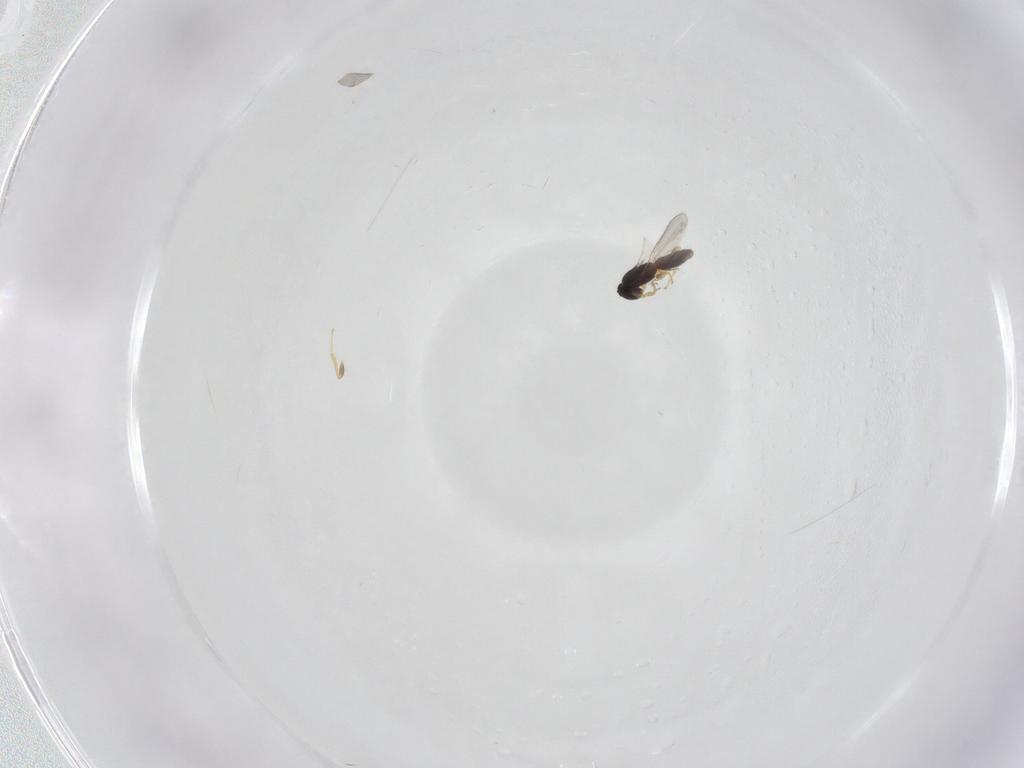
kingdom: Animalia
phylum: Arthropoda
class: Insecta
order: Hymenoptera
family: Platygastridae
